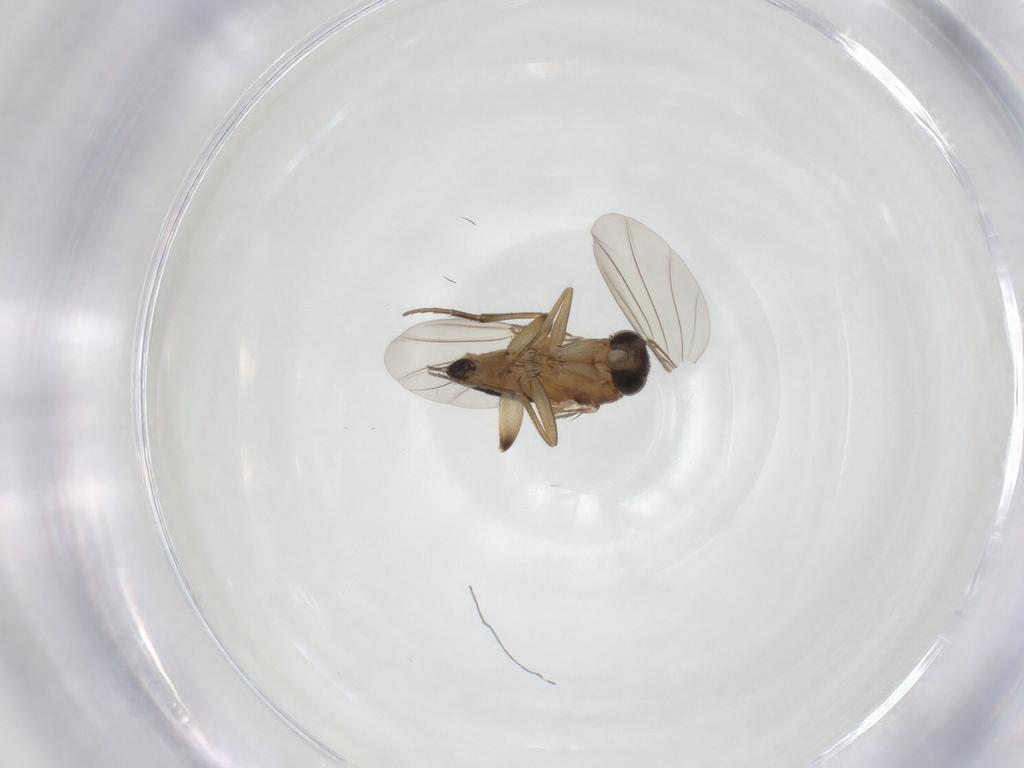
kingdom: Animalia
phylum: Arthropoda
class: Insecta
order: Diptera
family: Phoridae
